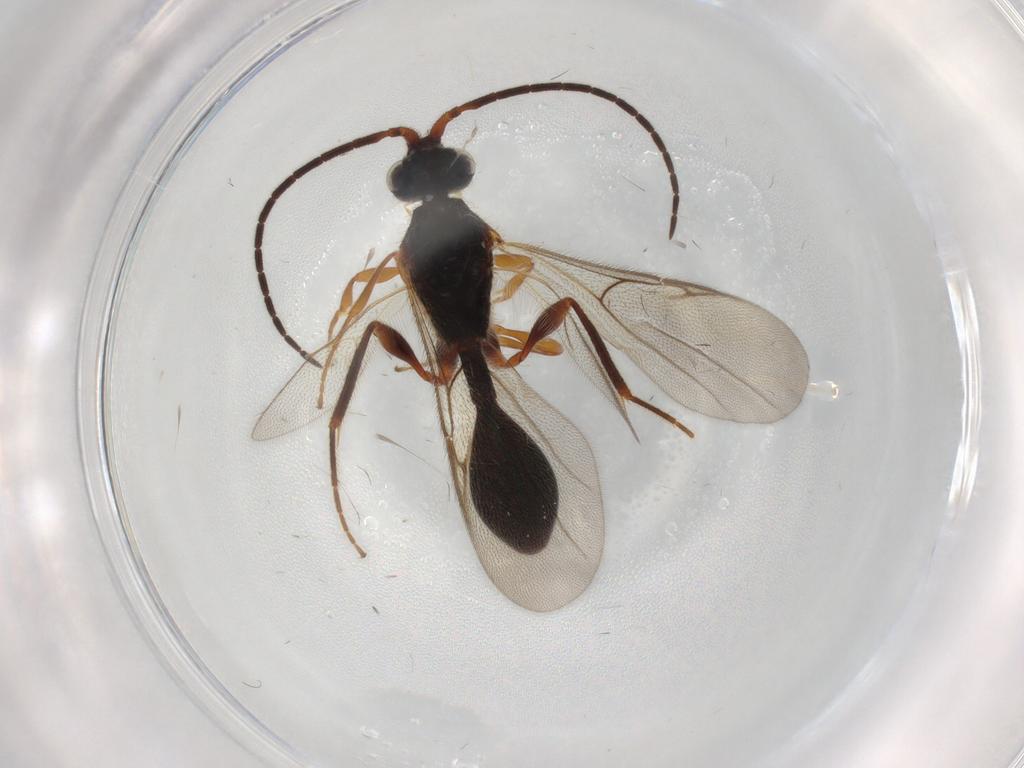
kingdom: Animalia
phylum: Arthropoda
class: Insecta
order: Hymenoptera
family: Diapriidae
